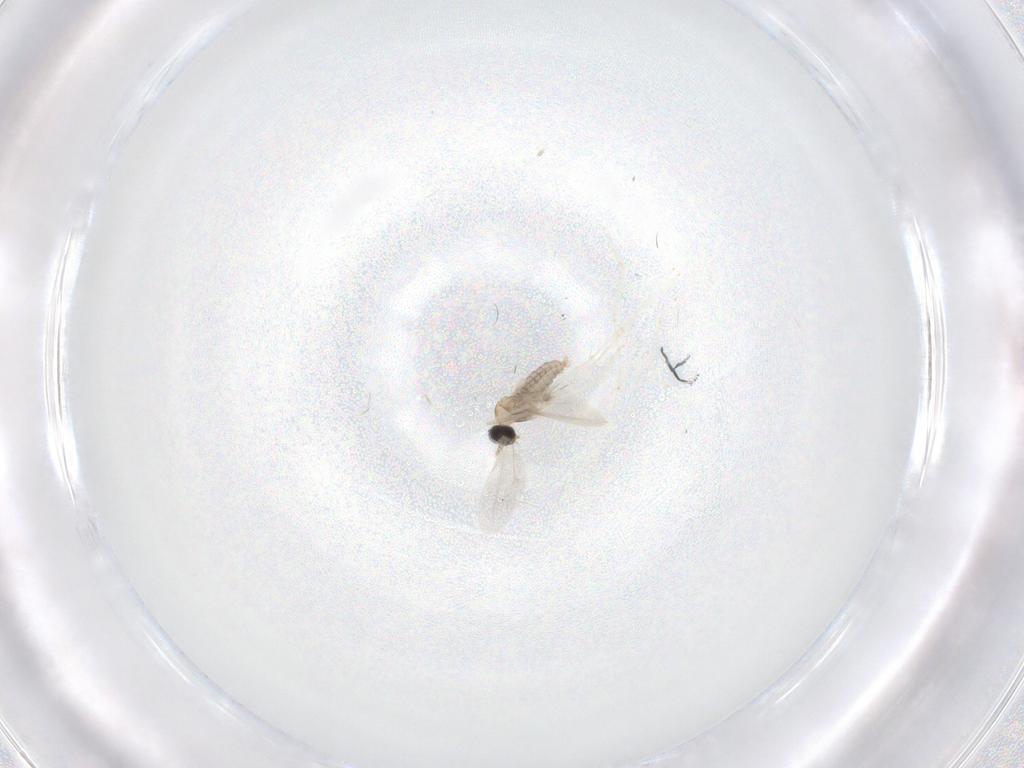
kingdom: Animalia
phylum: Arthropoda
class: Insecta
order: Diptera
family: Cecidomyiidae
